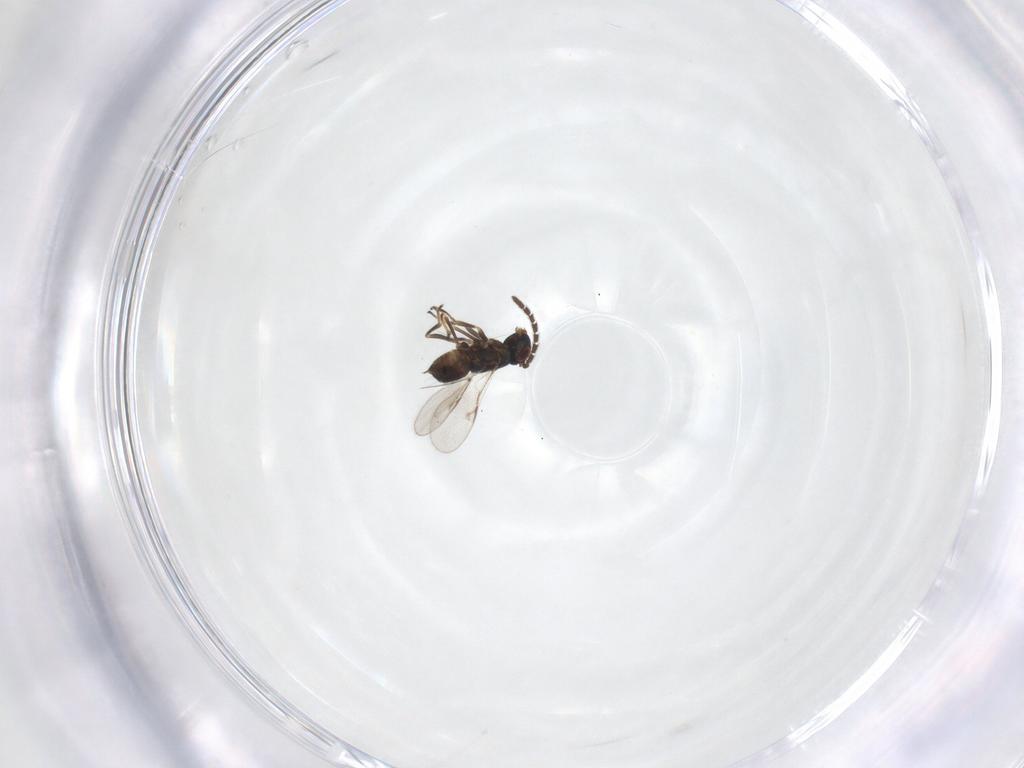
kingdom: Animalia
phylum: Arthropoda
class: Insecta
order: Hymenoptera
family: Encyrtidae
